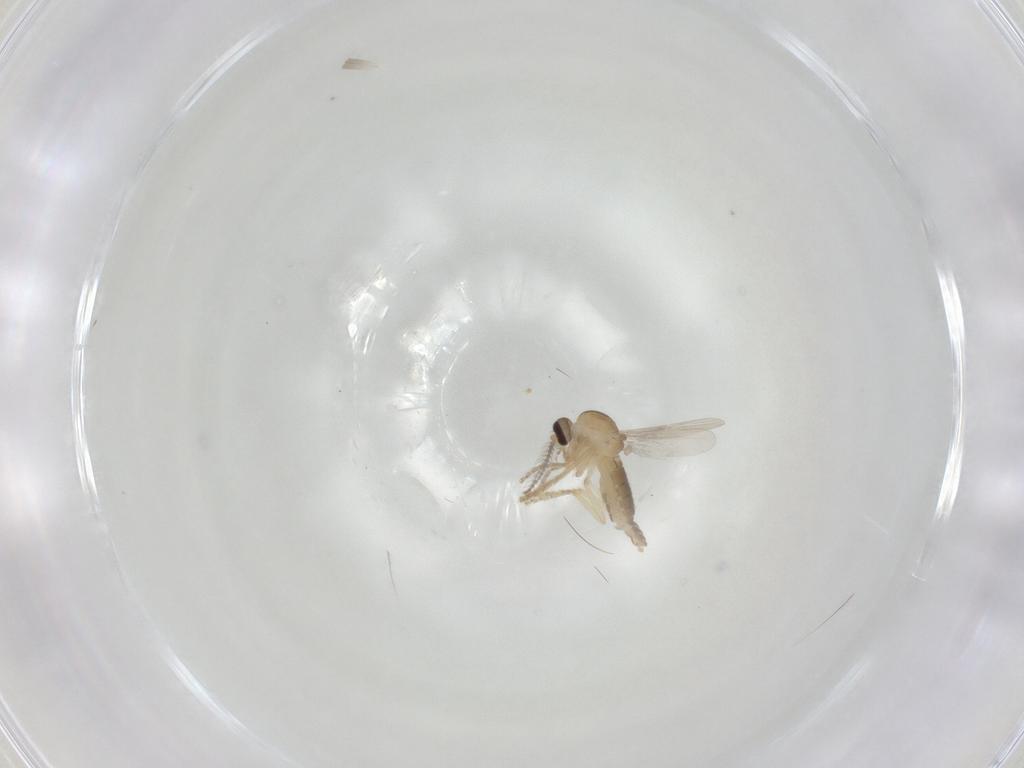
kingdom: Animalia
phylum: Arthropoda
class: Insecta
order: Diptera
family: Ceratopogonidae
